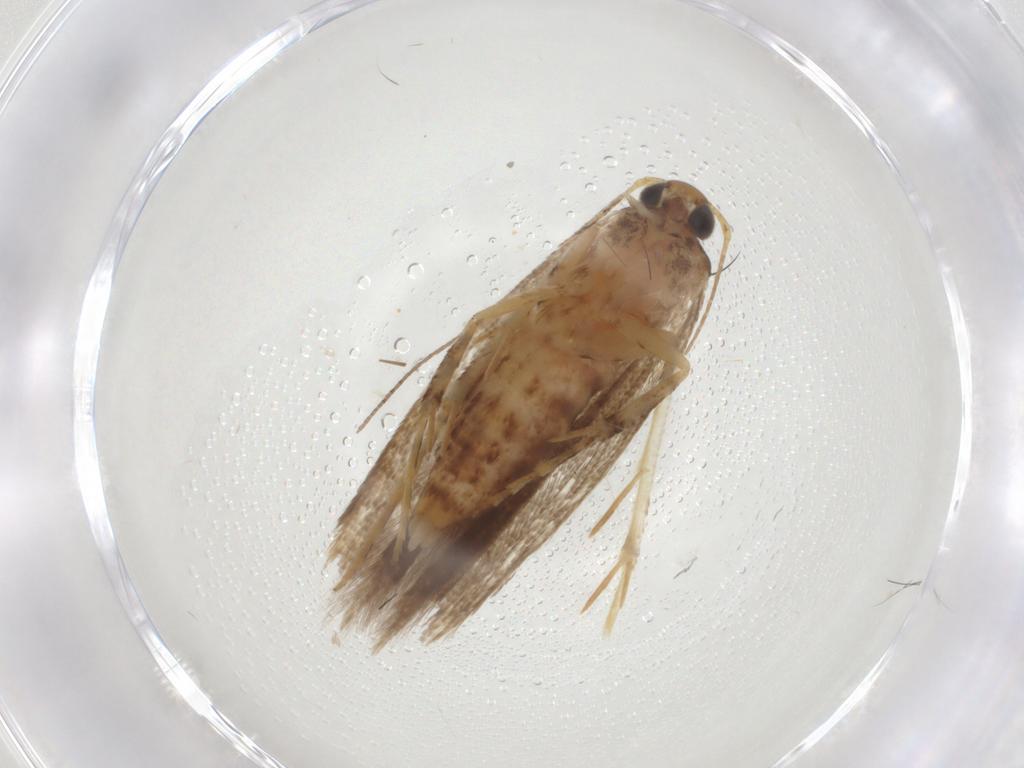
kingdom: Animalia
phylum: Arthropoda
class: Insecta
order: Lepidoptera
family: Gelechiidae
